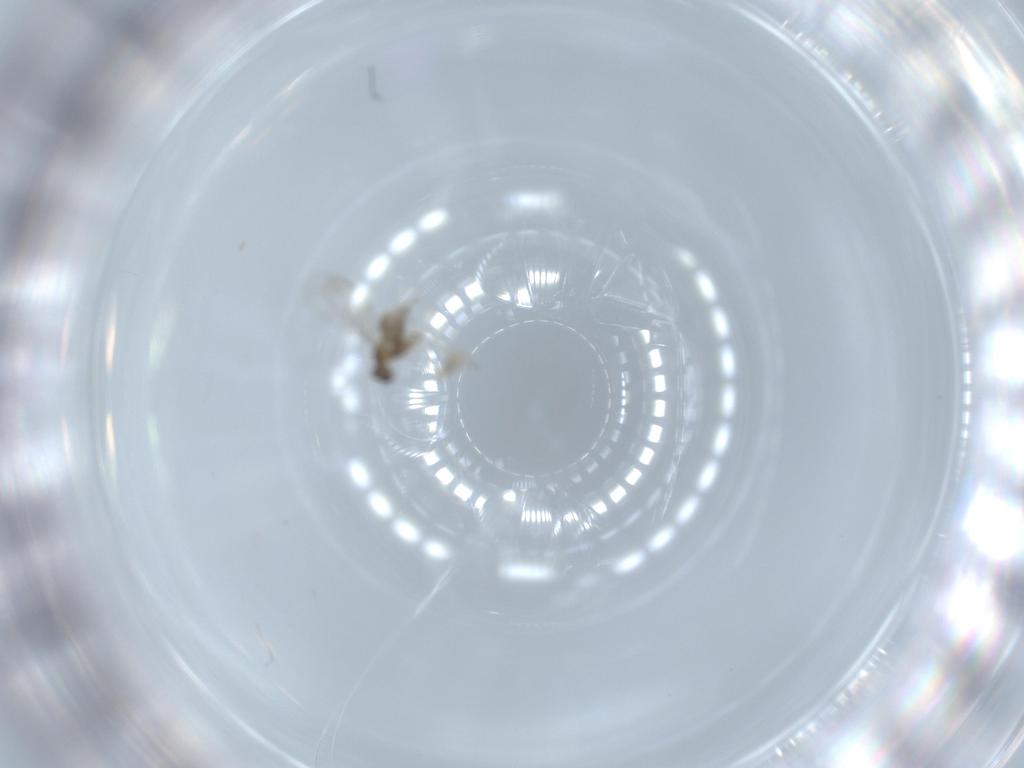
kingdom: Animalia
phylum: Arthropoda
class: Insecta
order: Diptera
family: Cecidomyiidae
